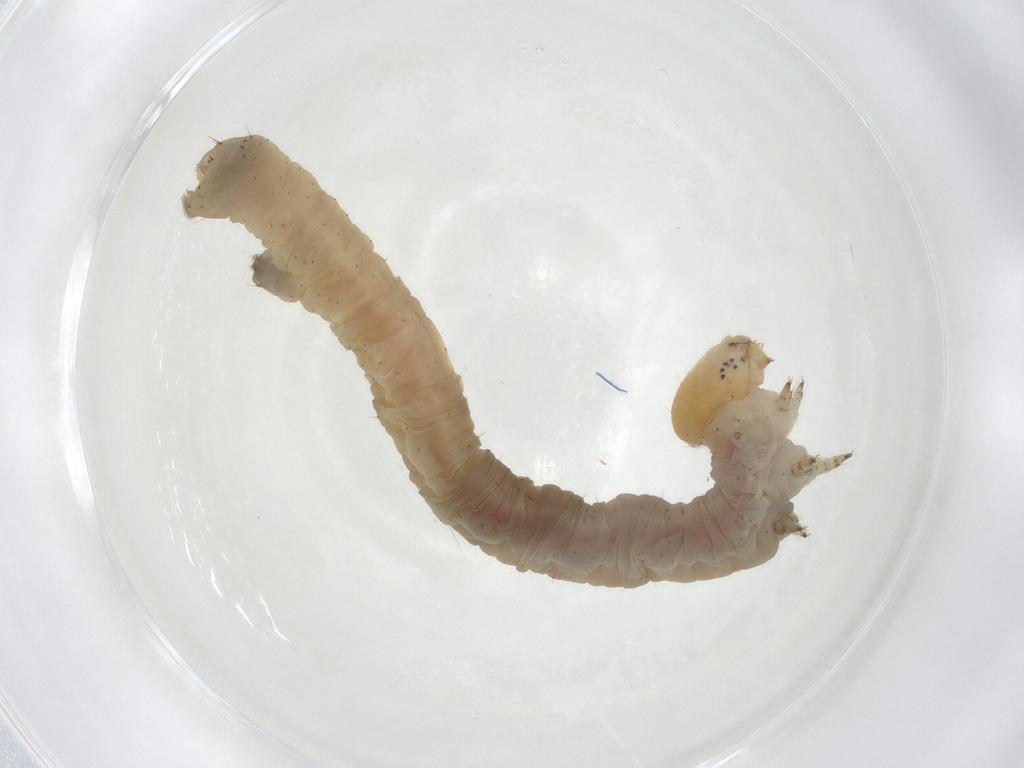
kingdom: Animalia
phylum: Arthropoda
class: Insecta
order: Lepidoptera
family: Geometridae
